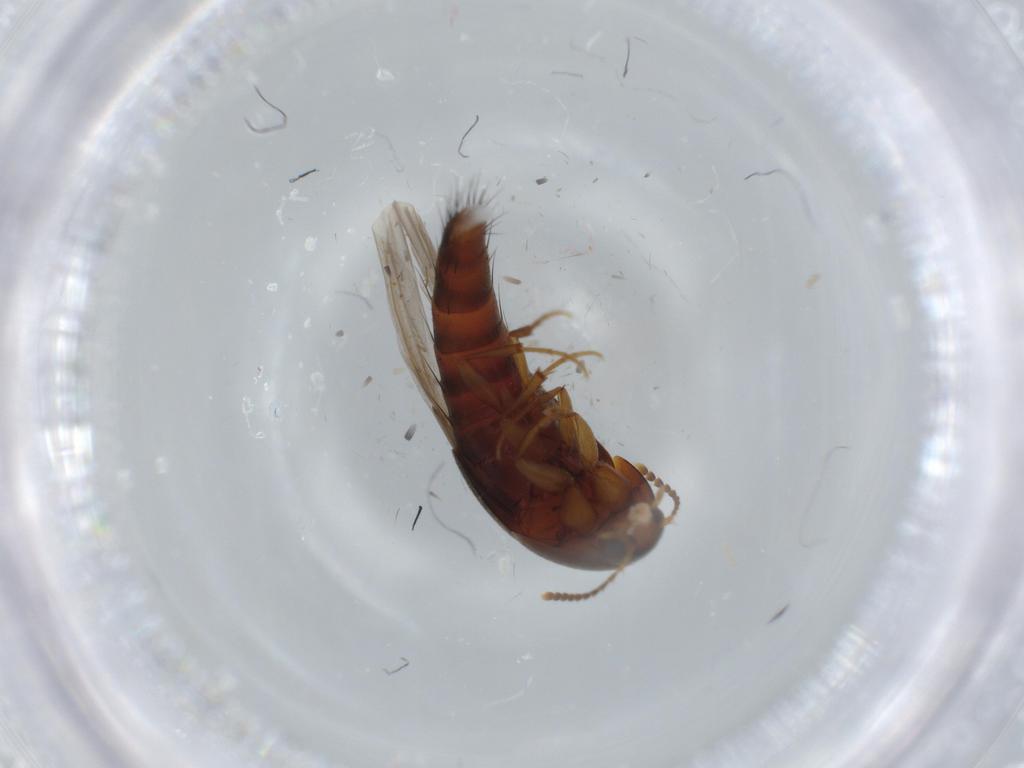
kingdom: Animalia
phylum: Arthropoda
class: Insecta
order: Coleoptera
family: Staphylinidae
